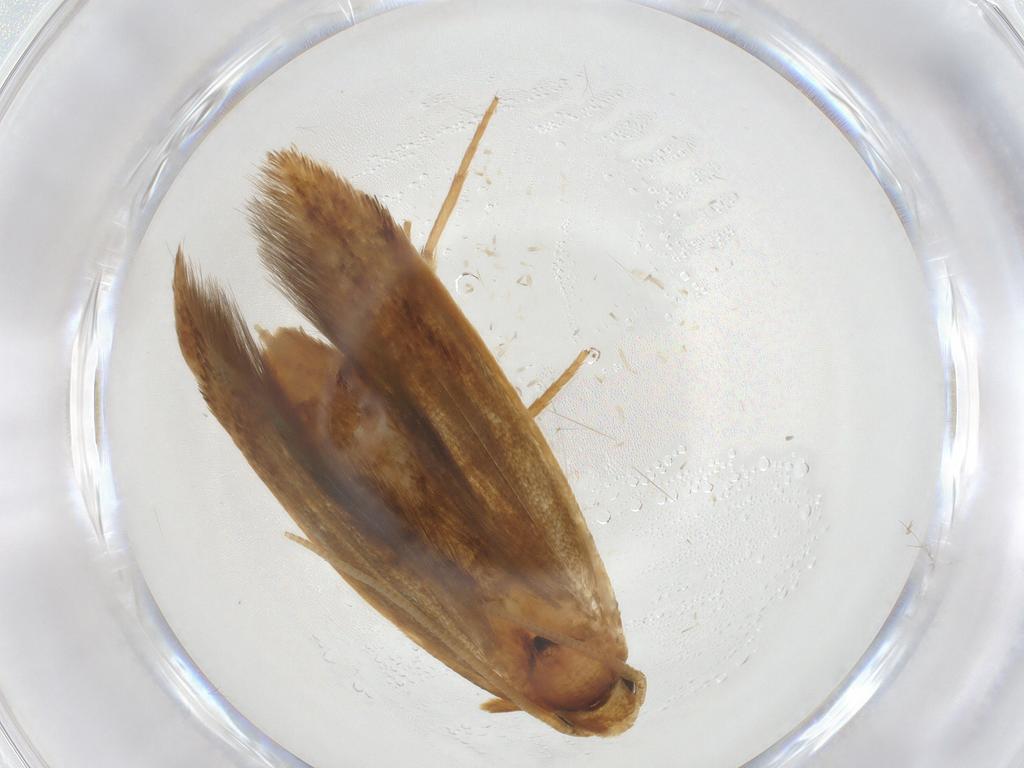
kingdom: Animalia
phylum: Arthropoda
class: Insecta
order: Lepidoptera
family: Tineidae
